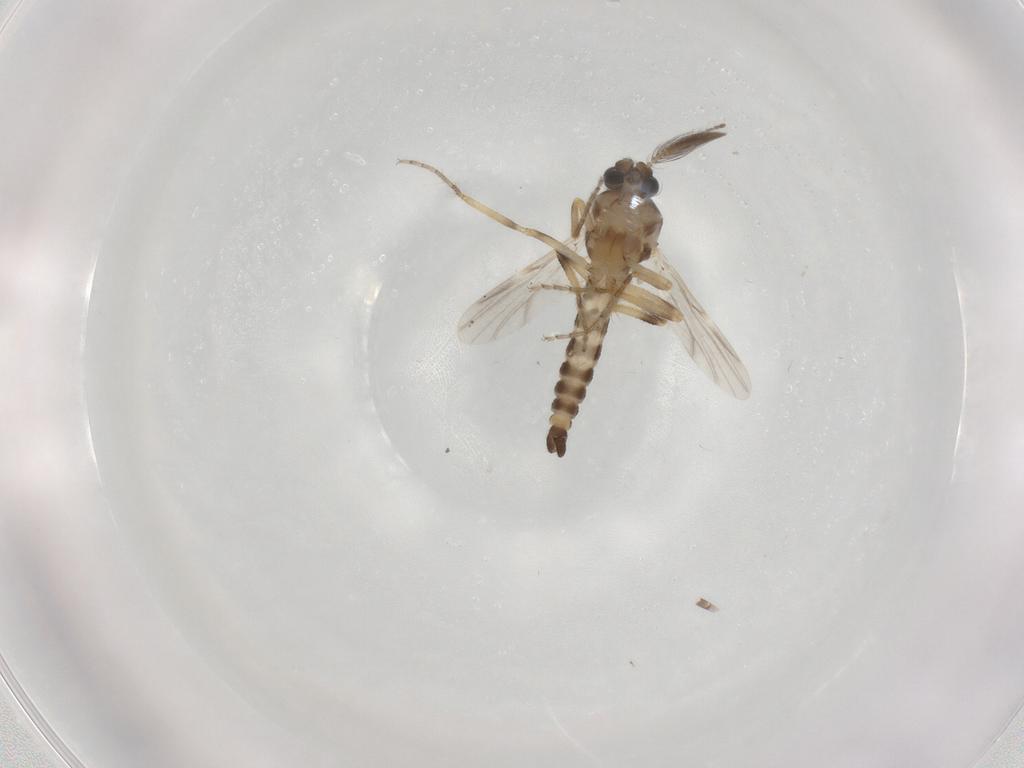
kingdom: Animalia
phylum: Arthropoda
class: Insecta
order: Diptera
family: Ceratopogonidae
